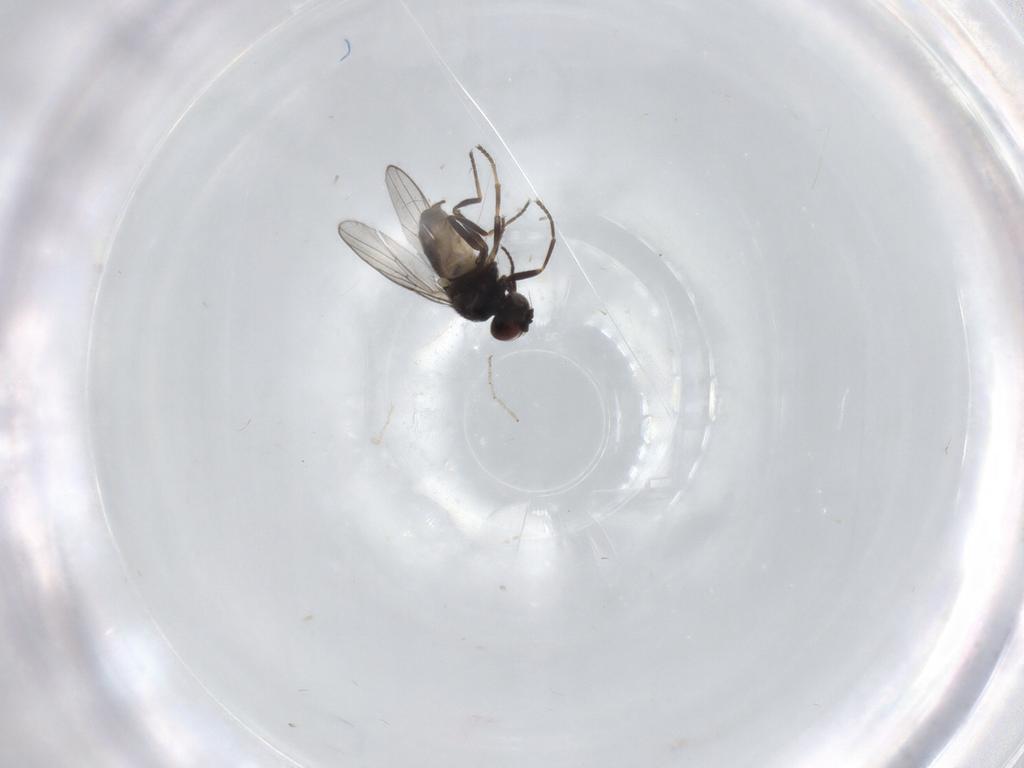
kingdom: Animalia
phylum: Arthropoda
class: Insecta
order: Diptera
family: Chloropidae
